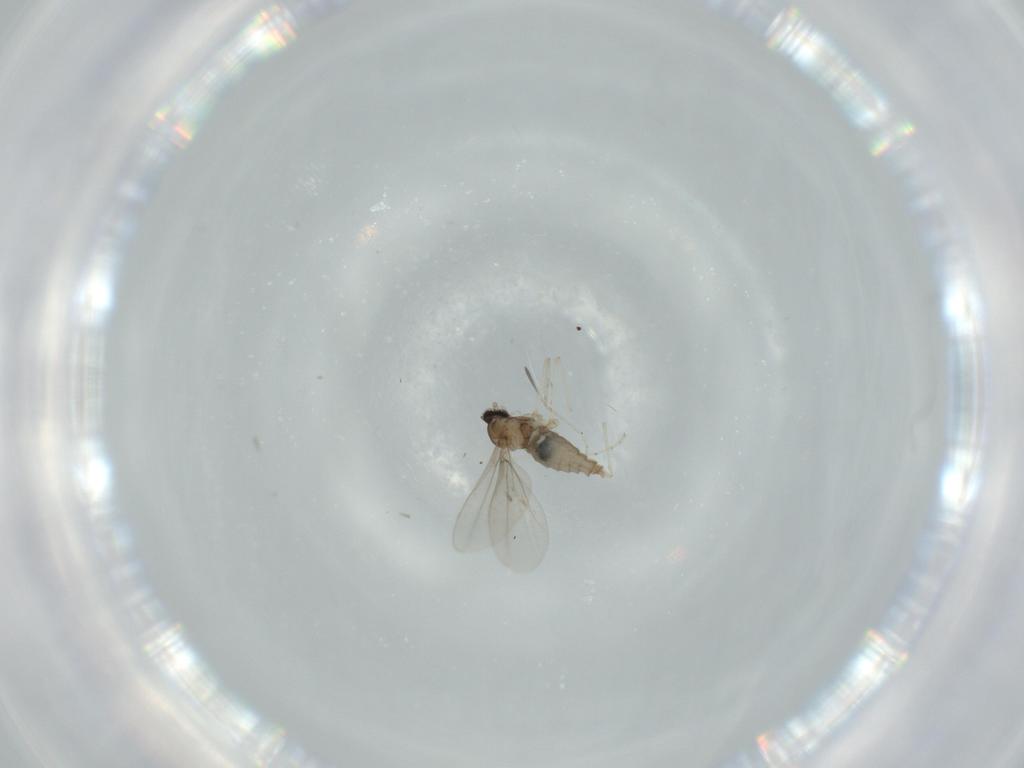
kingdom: Animalia
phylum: Arthropoda
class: Insecta
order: Diptera
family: Cecidomyiidae
